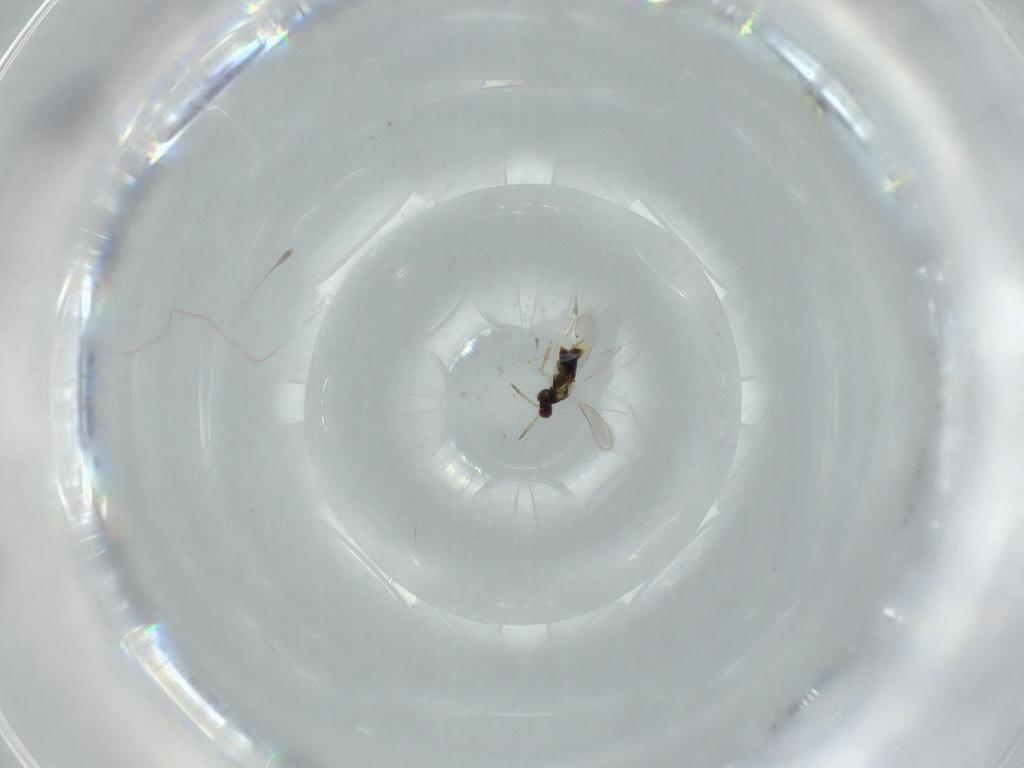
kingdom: Animalia
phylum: Arthropoda
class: Insecta
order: Hymenoptera
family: Aphelinidae
